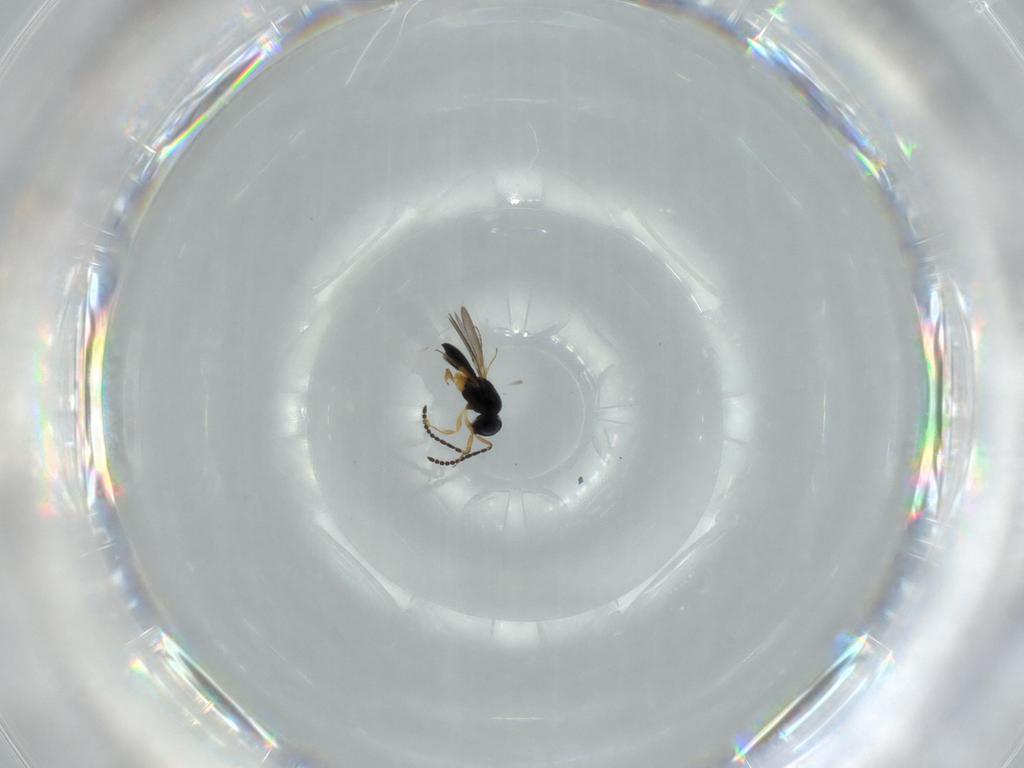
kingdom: Animalia
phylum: Arthropoda
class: Insecta
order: Hymenoptera
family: Scelionidae
